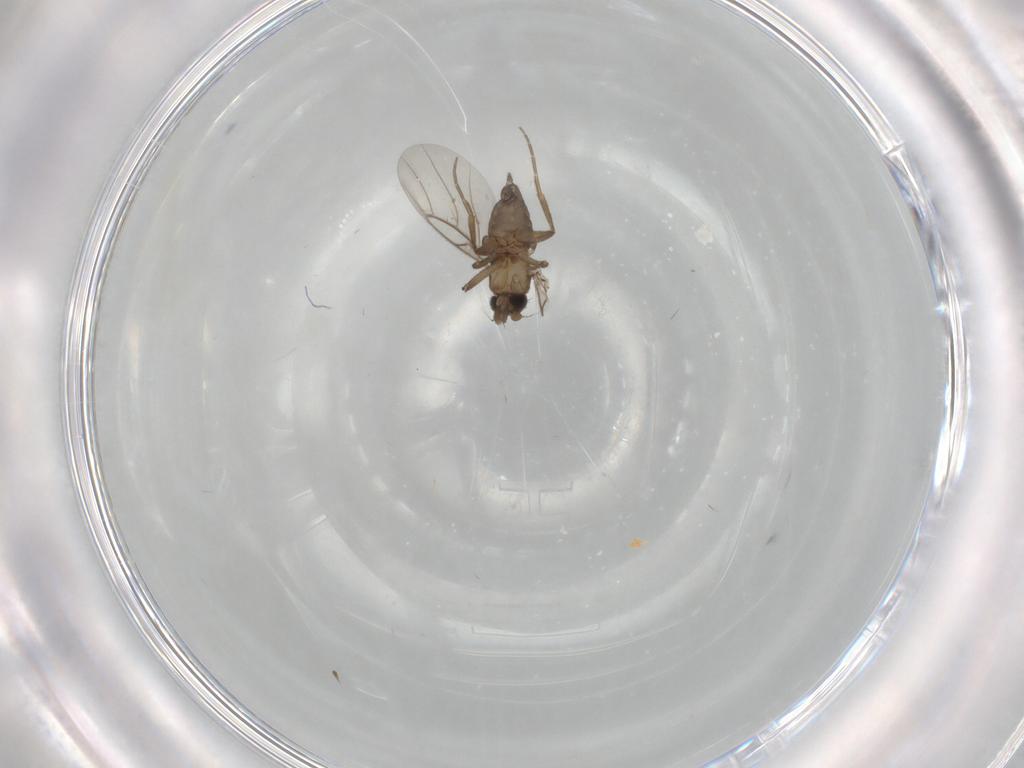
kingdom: Animalia
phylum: Arthropoda
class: Insecta
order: Diptera
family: Phoridae
